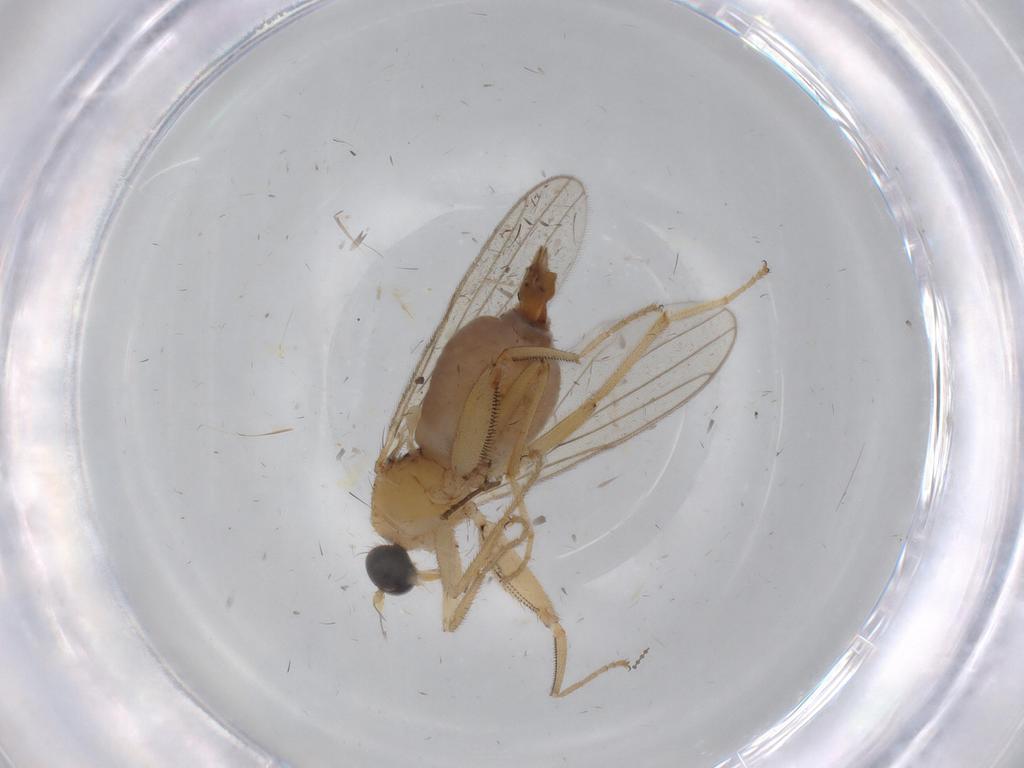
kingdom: Animalia
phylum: Arthropoda
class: Insecta
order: Diptera
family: Hybotidae
